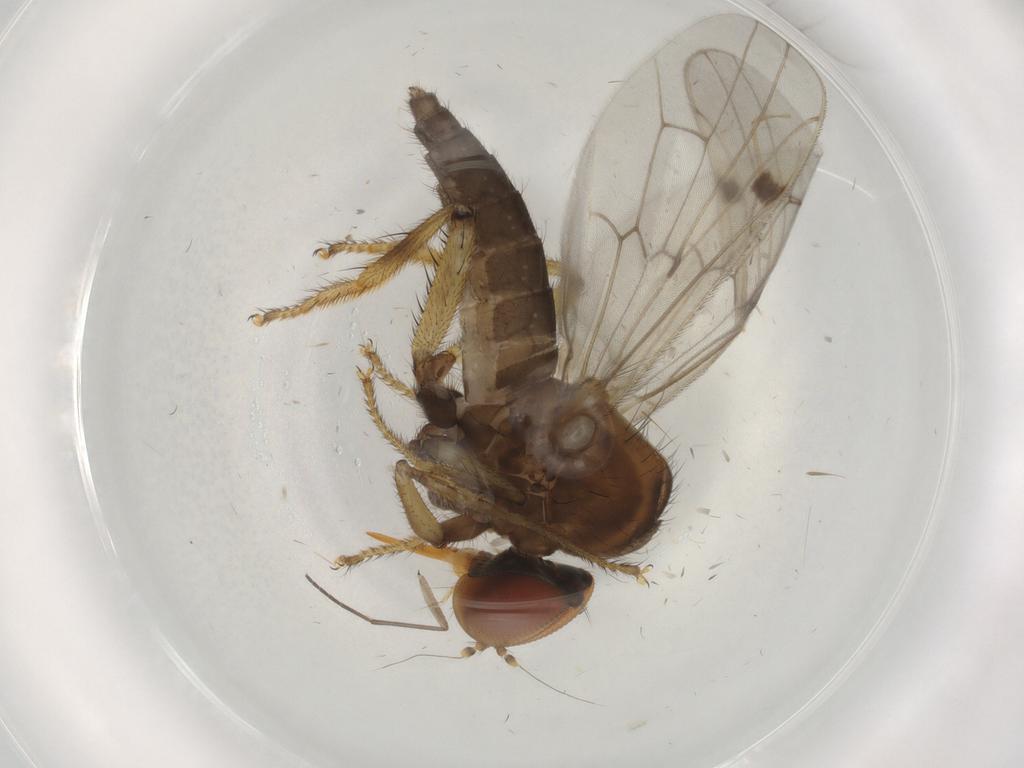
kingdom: Animalia
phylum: Arthropoda
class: Insecta
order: Diptera
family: Hybotidae
